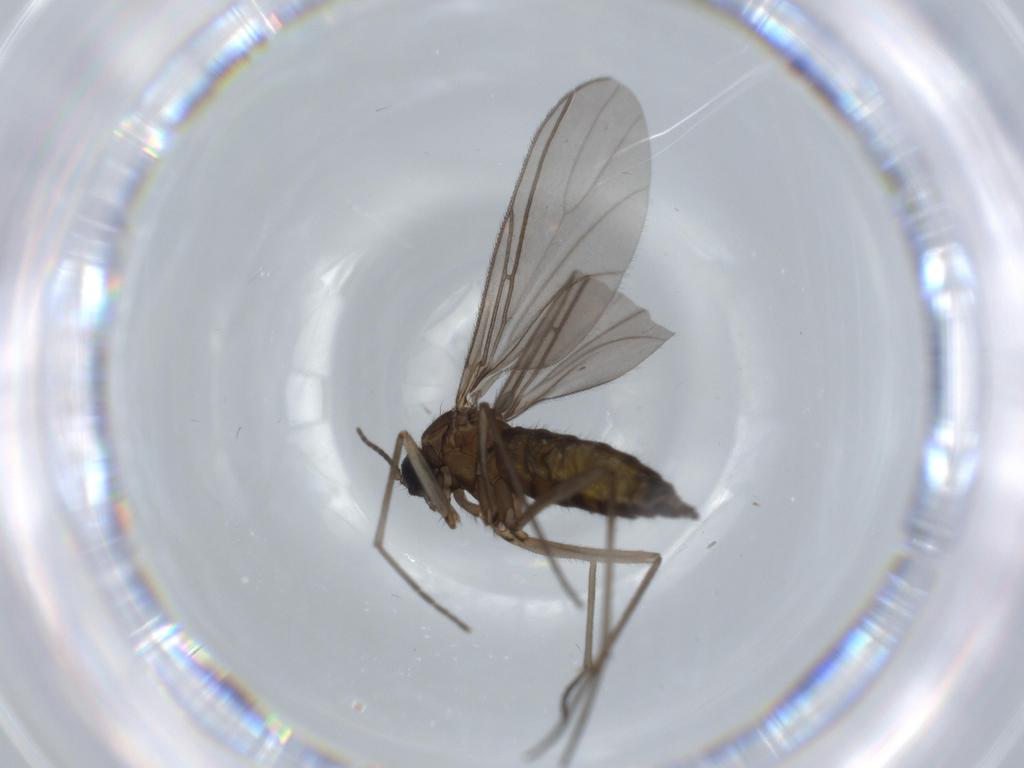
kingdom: Animalia
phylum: Arthropoda
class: Insecta
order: Diptera
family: Sciaridae
